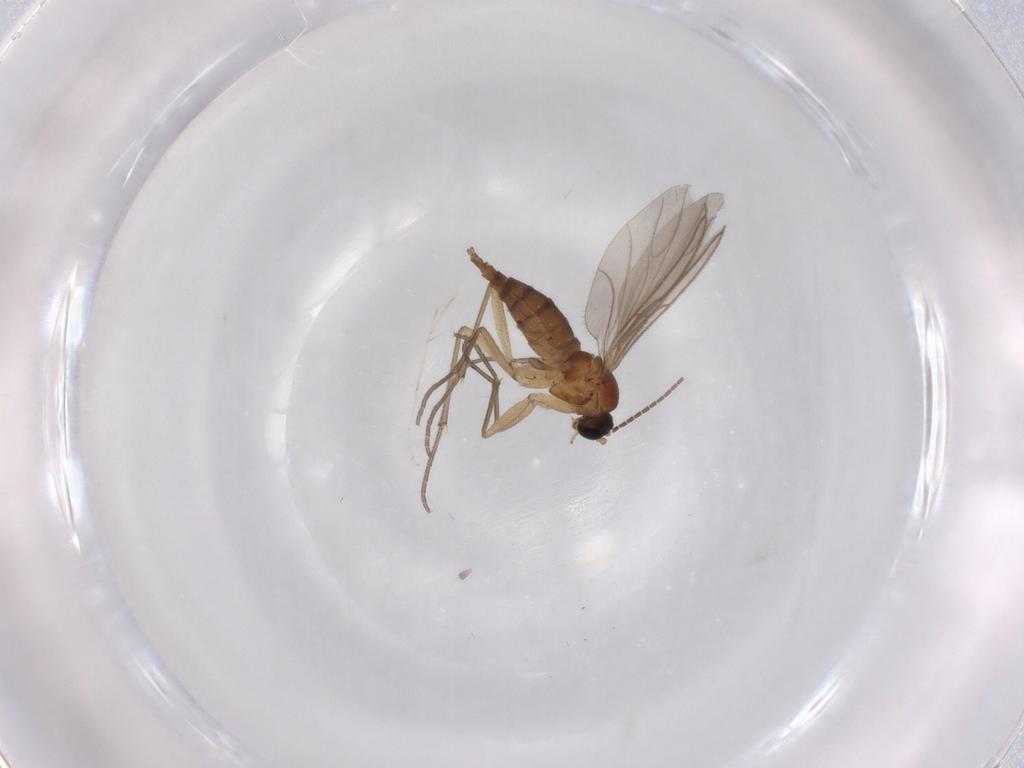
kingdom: Animalia
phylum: Arthropoda
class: Insecta
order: Diptera
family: Sciaridae
